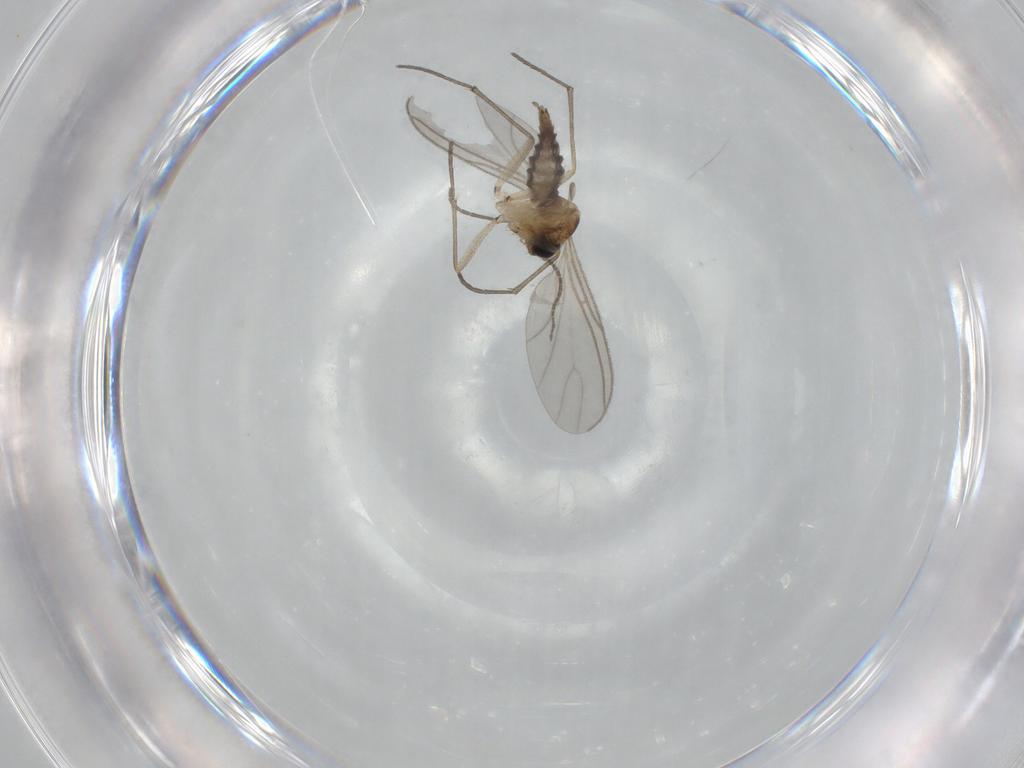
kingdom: Animalia
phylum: Arthropoda
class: Insecta
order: Diptera
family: Sciaridae
